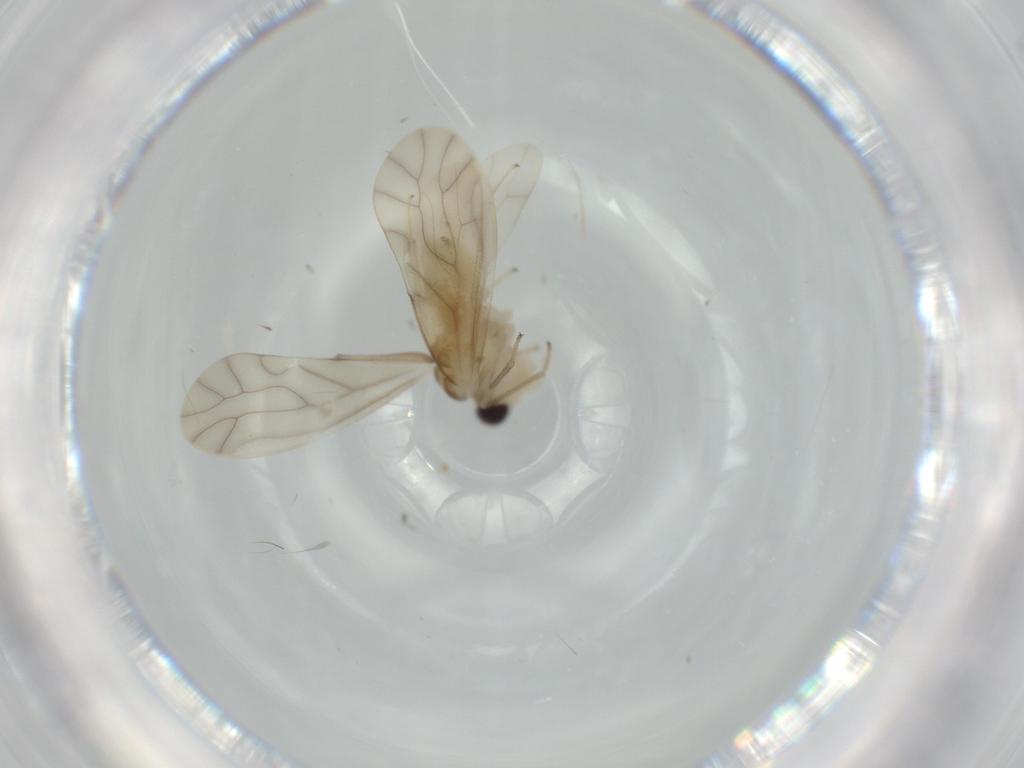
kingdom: Animalia
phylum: Arthropoda
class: Insecta
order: Psocodea
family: Caeciliusidae
